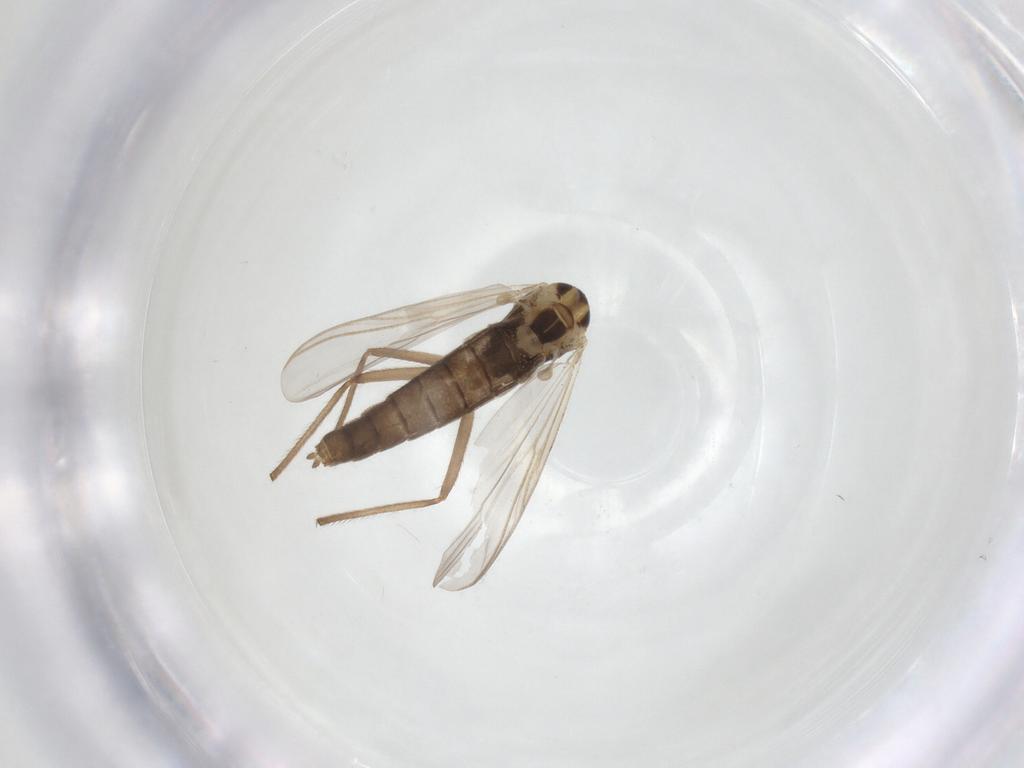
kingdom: Animalia
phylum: Arthropoda
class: Insecta
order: Diptera
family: Chironomidae
